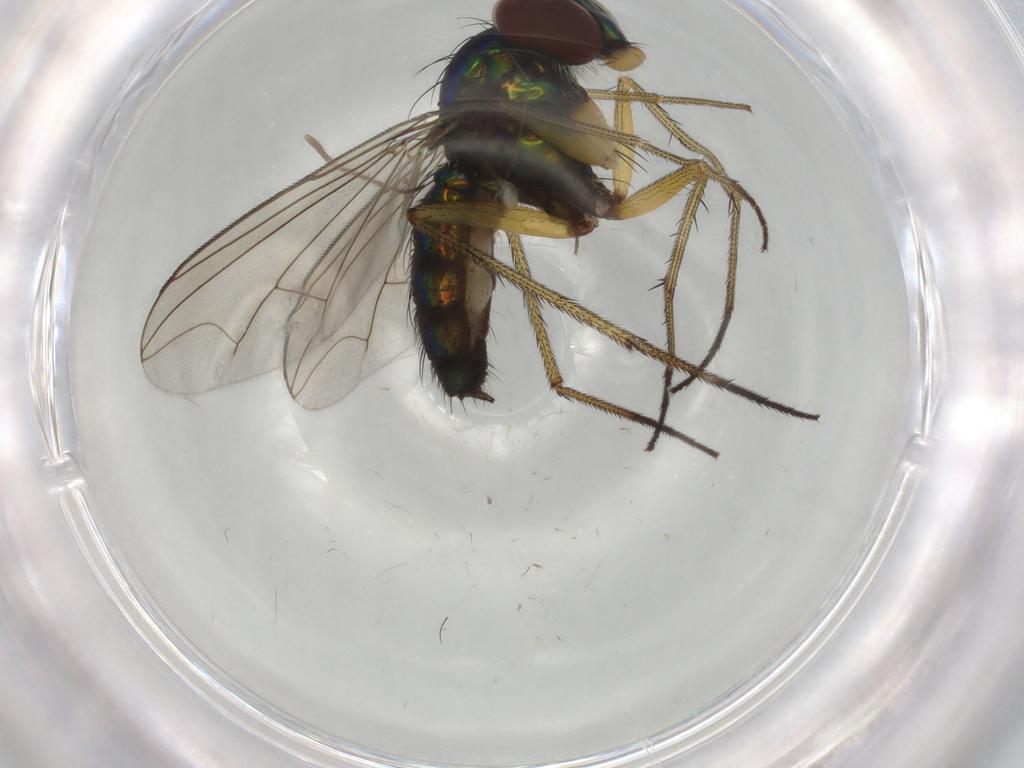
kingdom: Animalia
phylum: Arthropoda
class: Insecta
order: Diptera
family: Dolichopodidae
